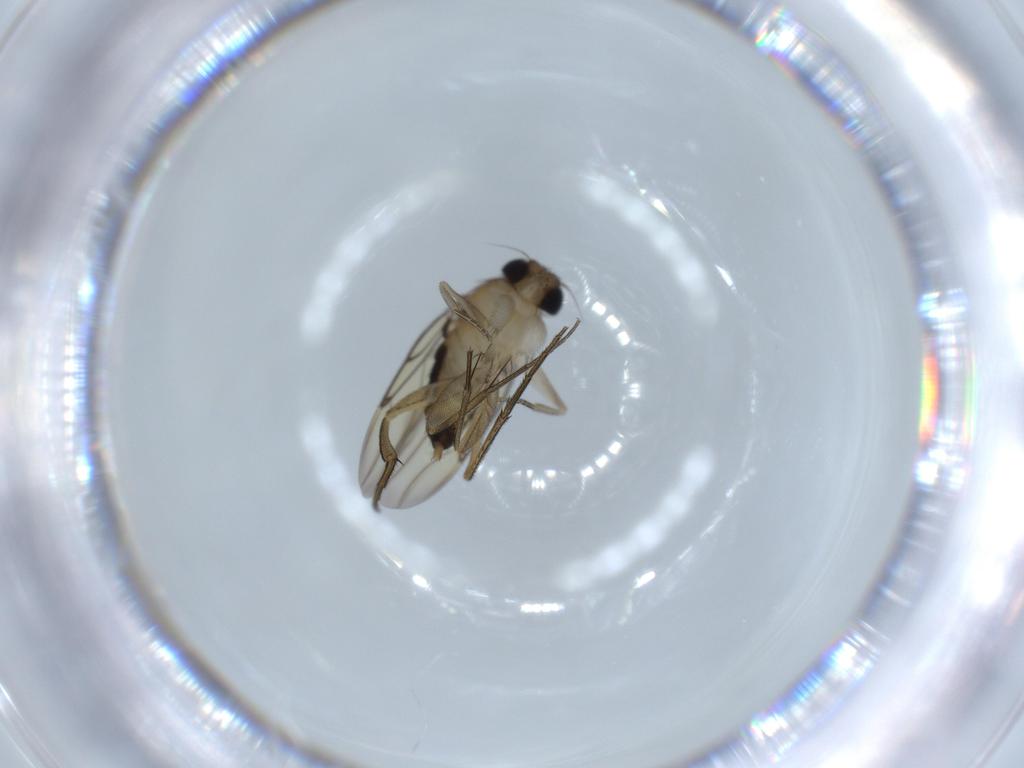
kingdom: Animalia
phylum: Arthropoda
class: Insecta
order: Diptera
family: Phoridae
